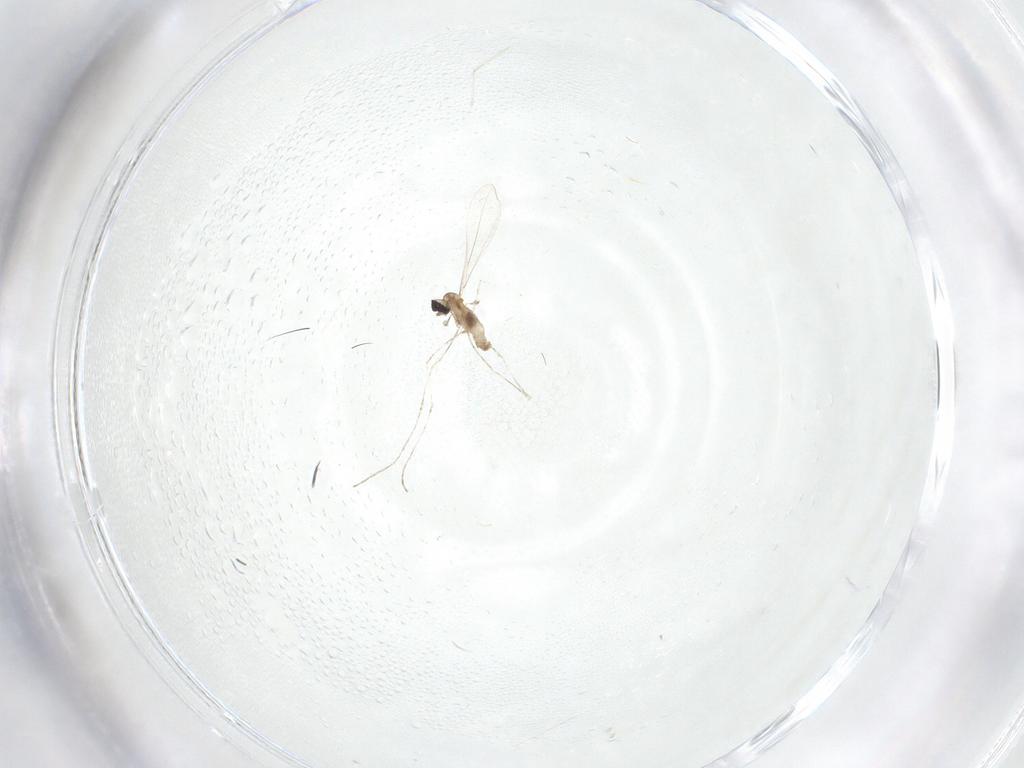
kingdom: Animalia
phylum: Arthropoda
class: Insecta
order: Diptera
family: Cecidomyiidae
